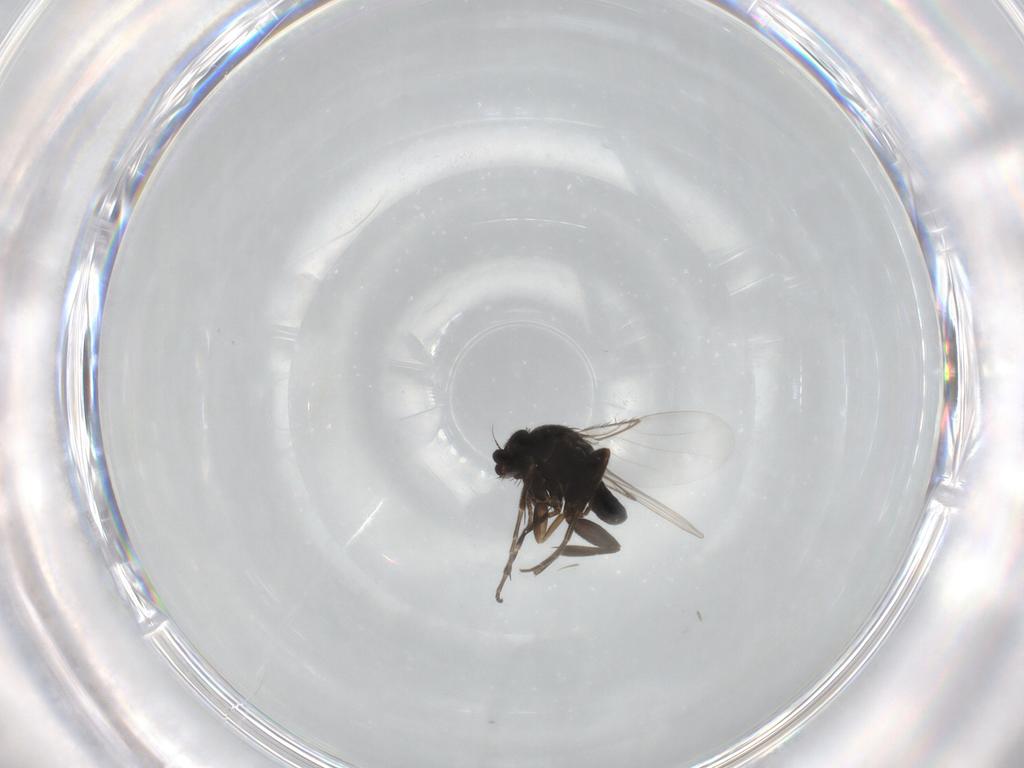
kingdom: Animalia
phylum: Arthropoda
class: Insecta
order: Diptera
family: Phoridae
